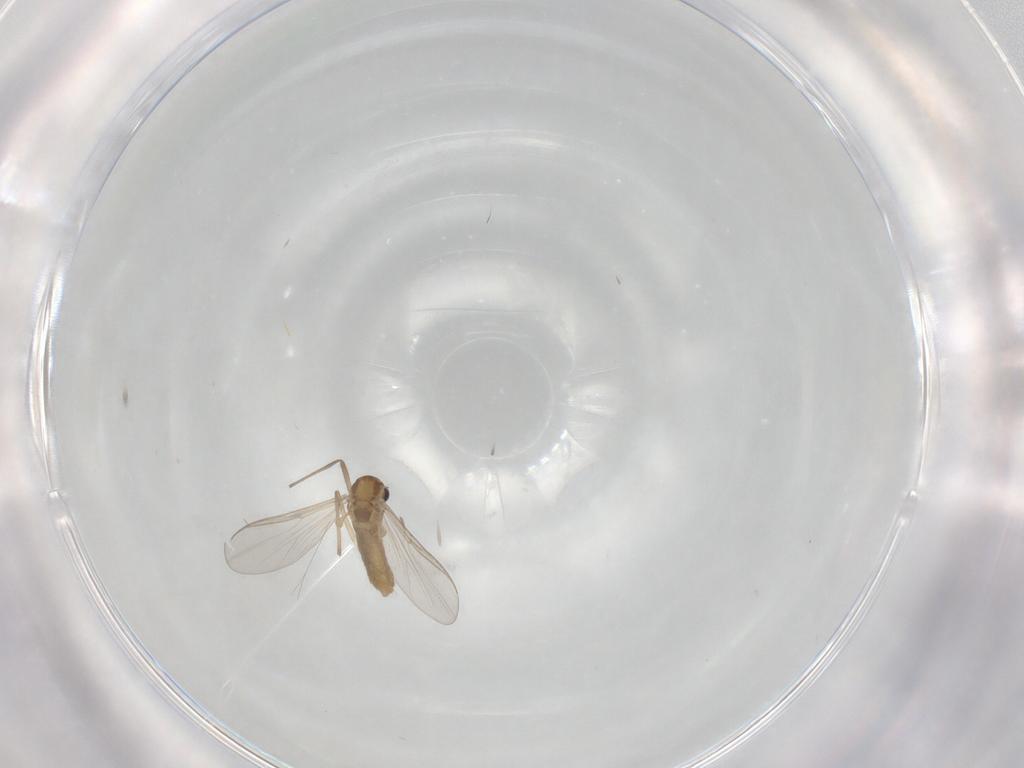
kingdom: Animalia
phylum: Arthropoda
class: Insecta
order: Diptera
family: Chironomidae
